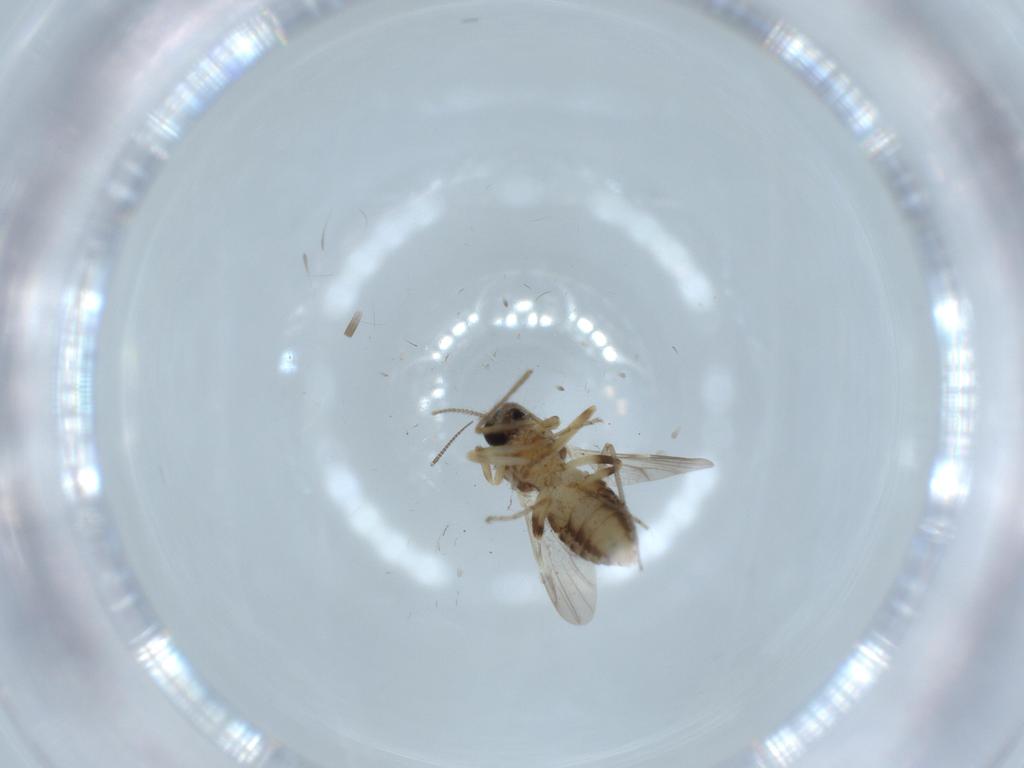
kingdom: Animalia
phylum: Arthropoda
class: Insecta
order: Diptera
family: Ceratopogonidae
